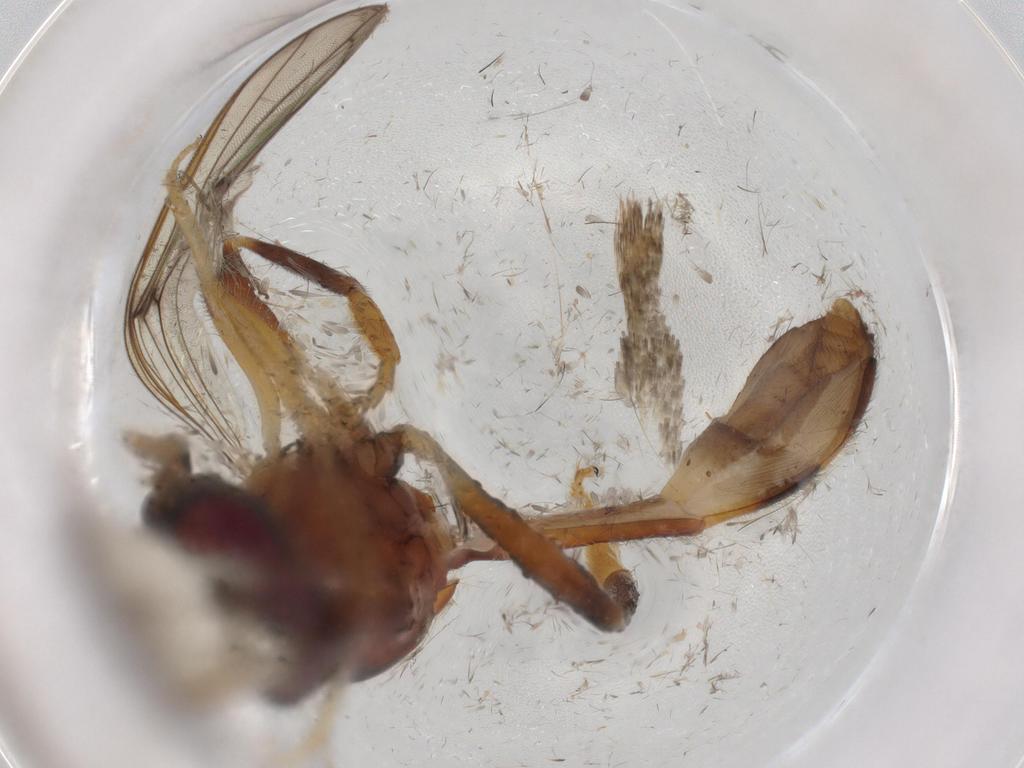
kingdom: Animalia
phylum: Arthropoda
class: Insecta
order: Diptera
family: Syrphidae
